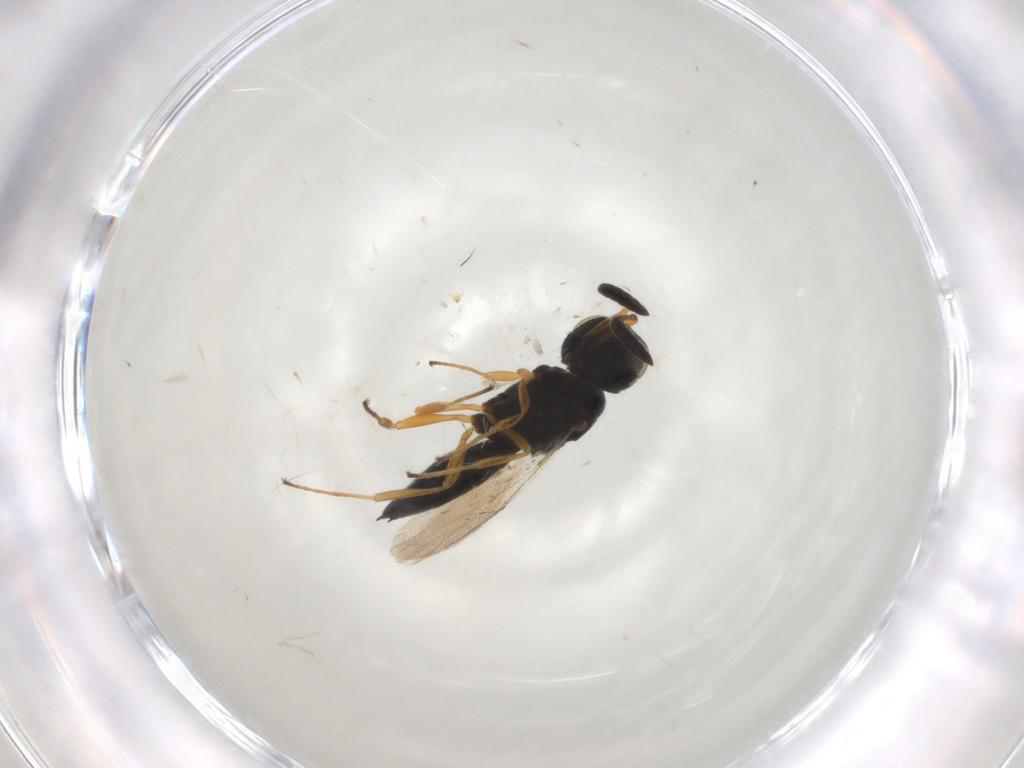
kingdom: Animalia
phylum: Arthropoda
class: Insecta
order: Hymenoptera
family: Scelionidae
